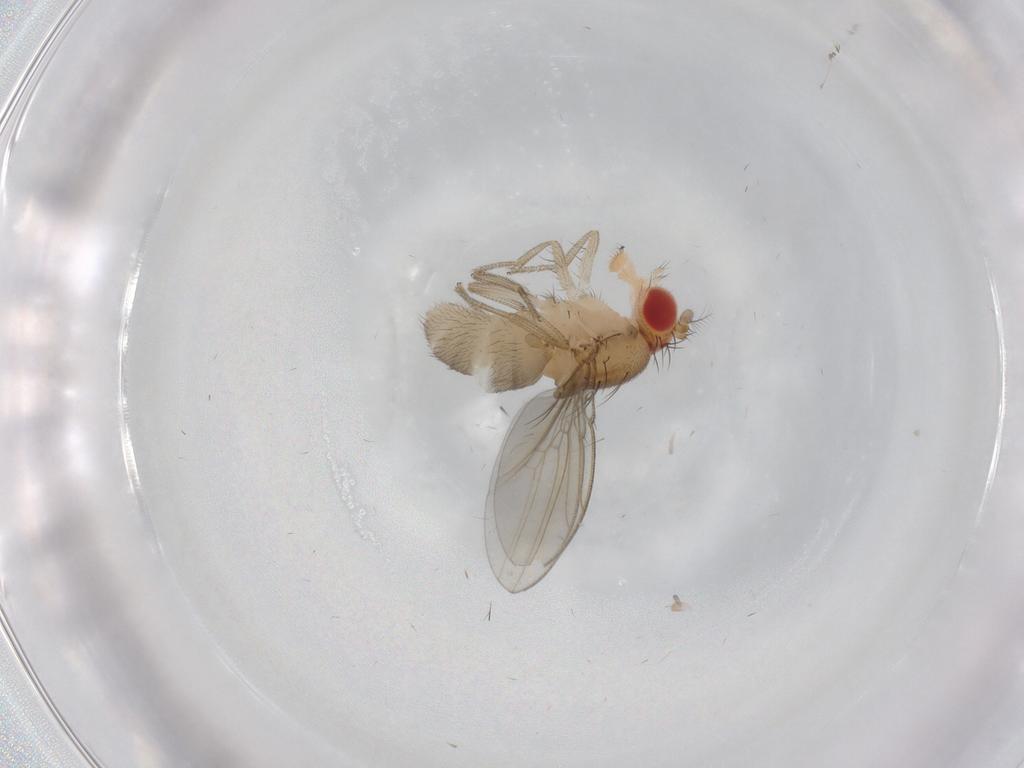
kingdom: Animalia
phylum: Arthropoda
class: Insecta
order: Diptera
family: Drosophilidae
